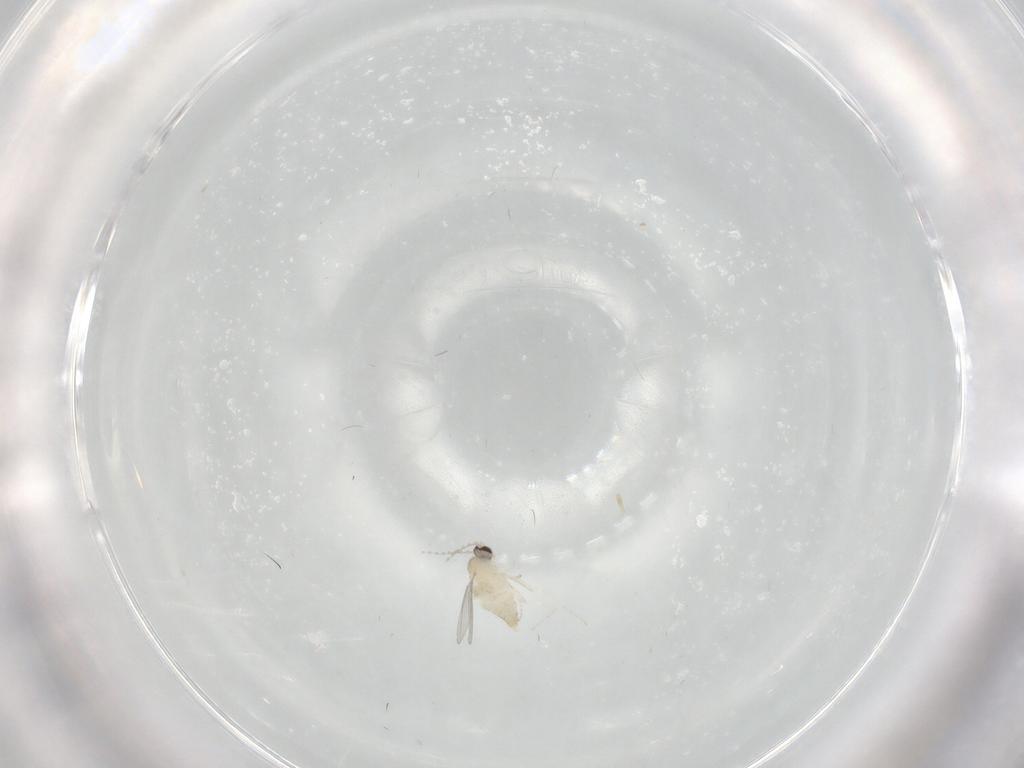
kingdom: Animalia
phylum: Arthropoda
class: Insecta
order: Diptera
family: Cecidomyiidae
